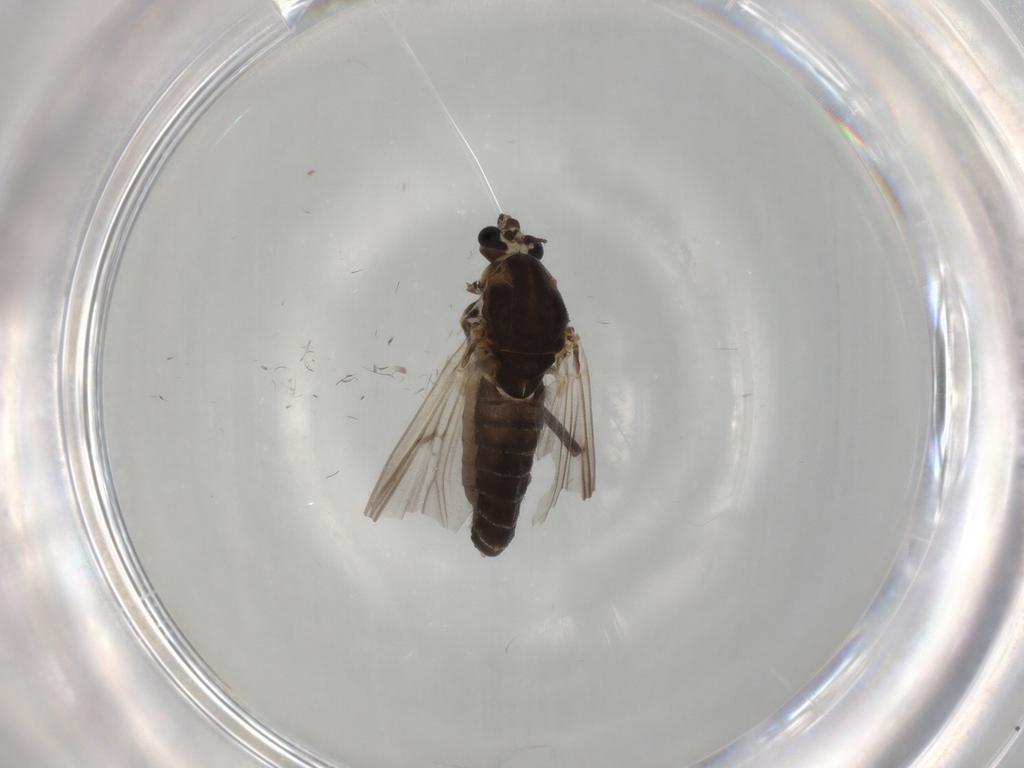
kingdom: Animalia
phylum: Arthropoda
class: Insecta
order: Diptera
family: Chironomidae
